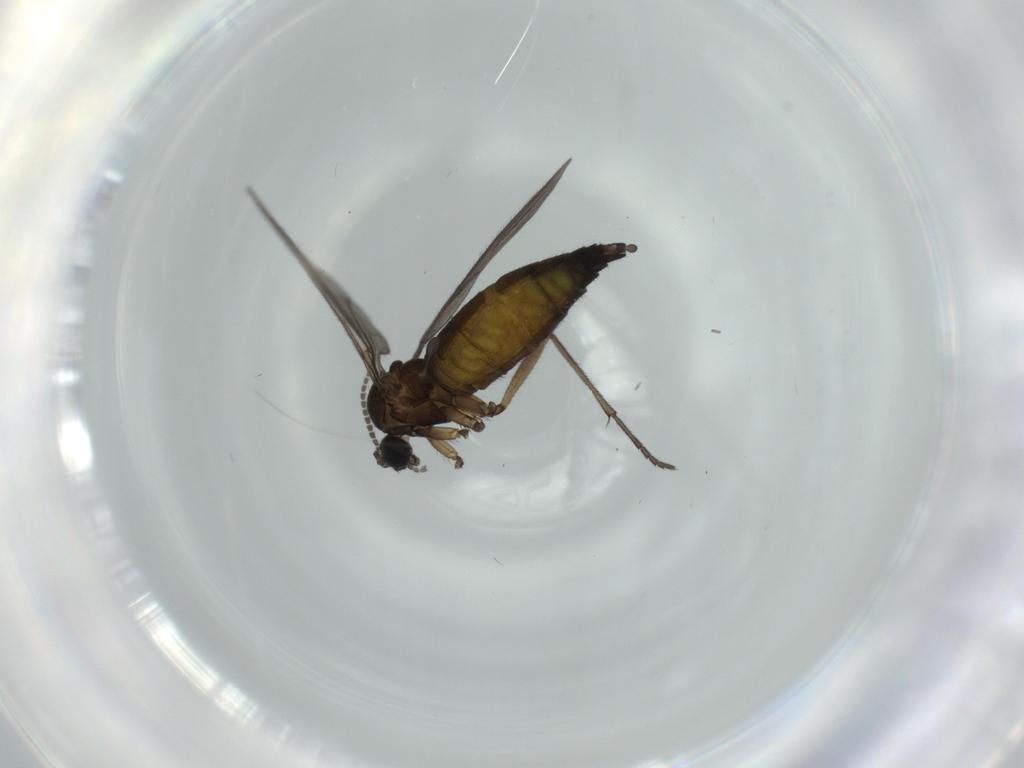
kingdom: Animalia
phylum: Arthropoda
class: Insecta
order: Diptera
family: Sciaridae
